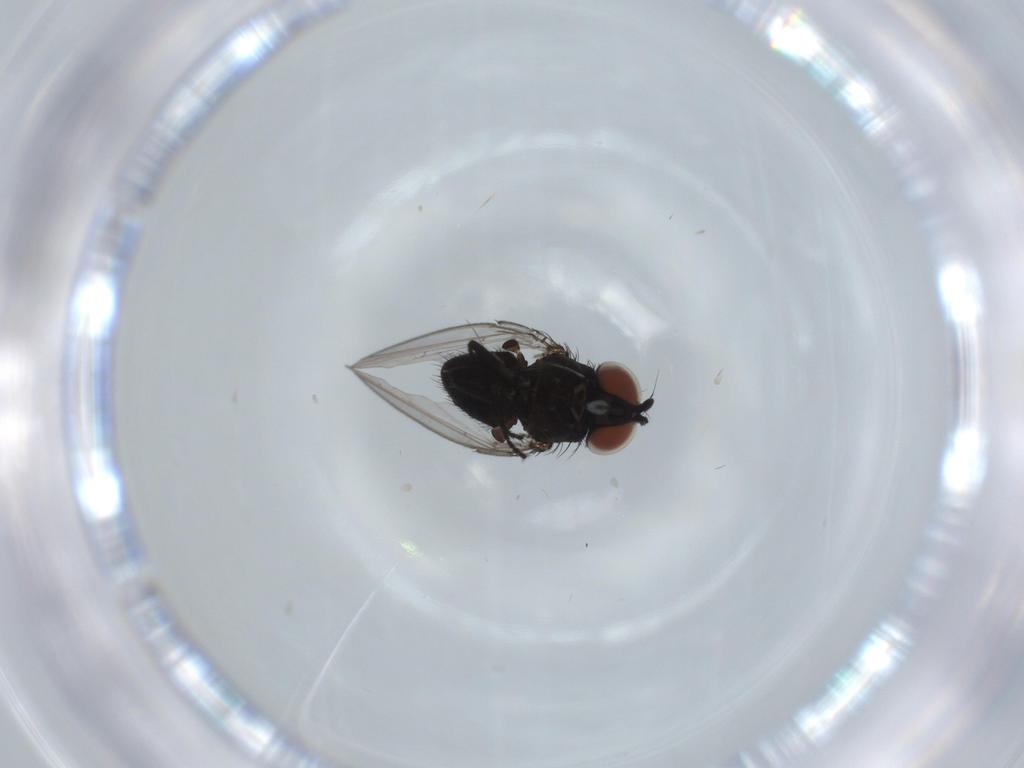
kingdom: Animalia
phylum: Arthropoda
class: Insecta
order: Diptera
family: Milichiidae
